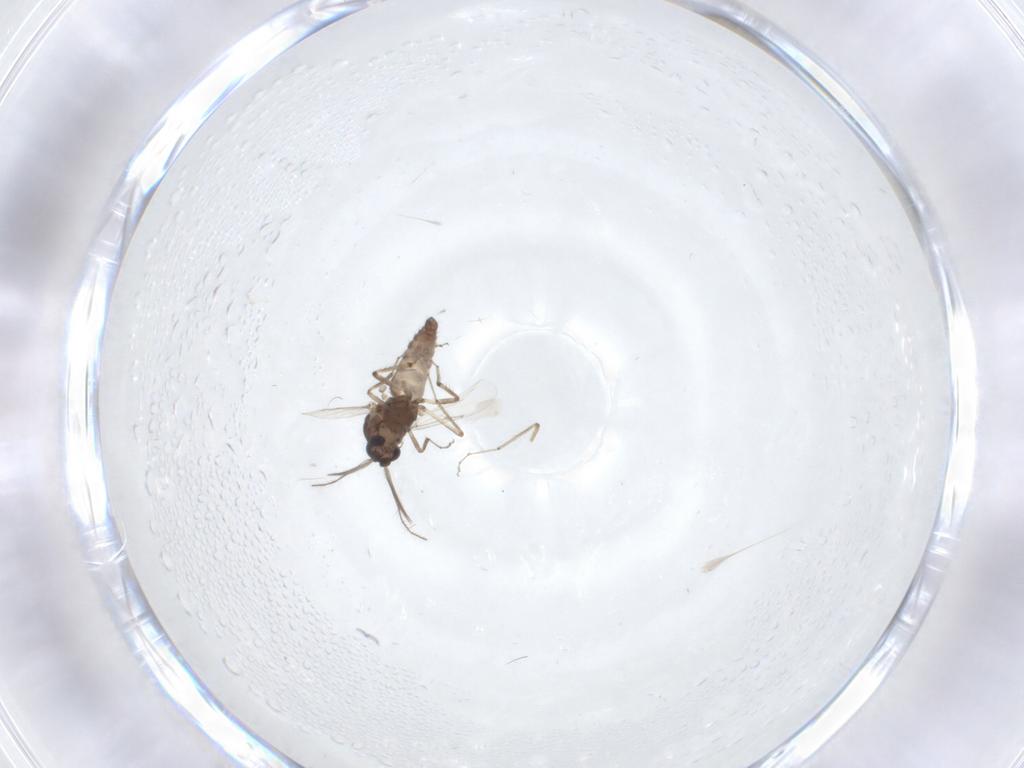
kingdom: Animalia
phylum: Arthropoda
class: Insecta
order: Diptera
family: Ceratopogonidae
